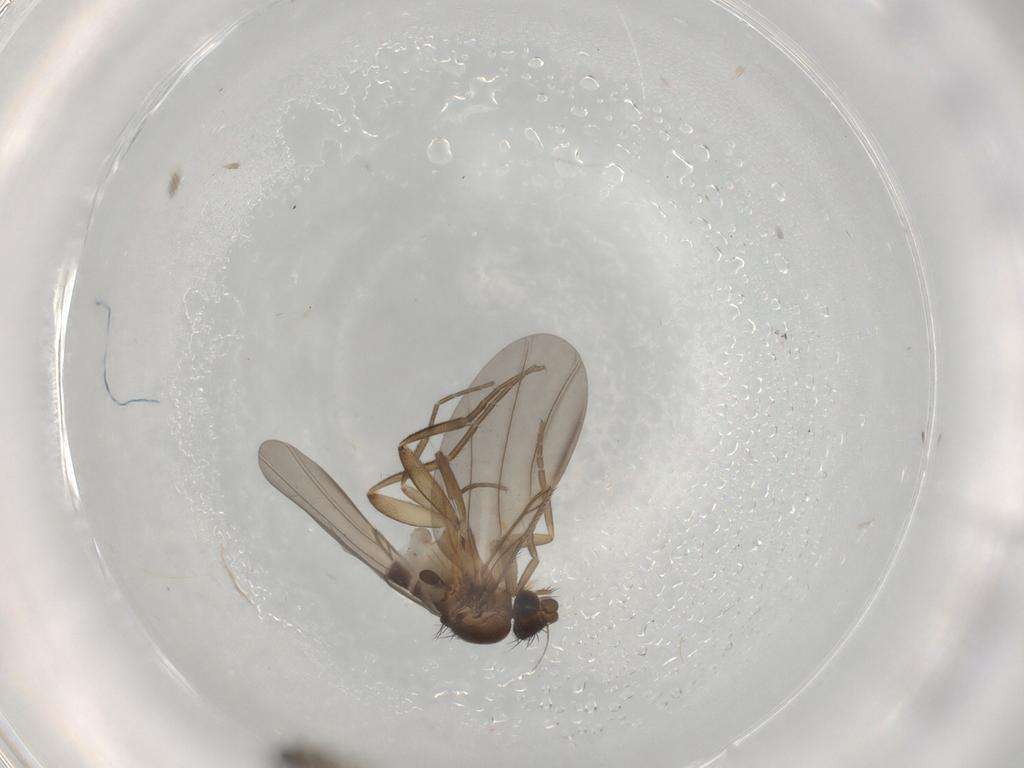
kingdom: Animalia
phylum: Arthropoda
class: Insecta
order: Diptera
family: Phoridae
